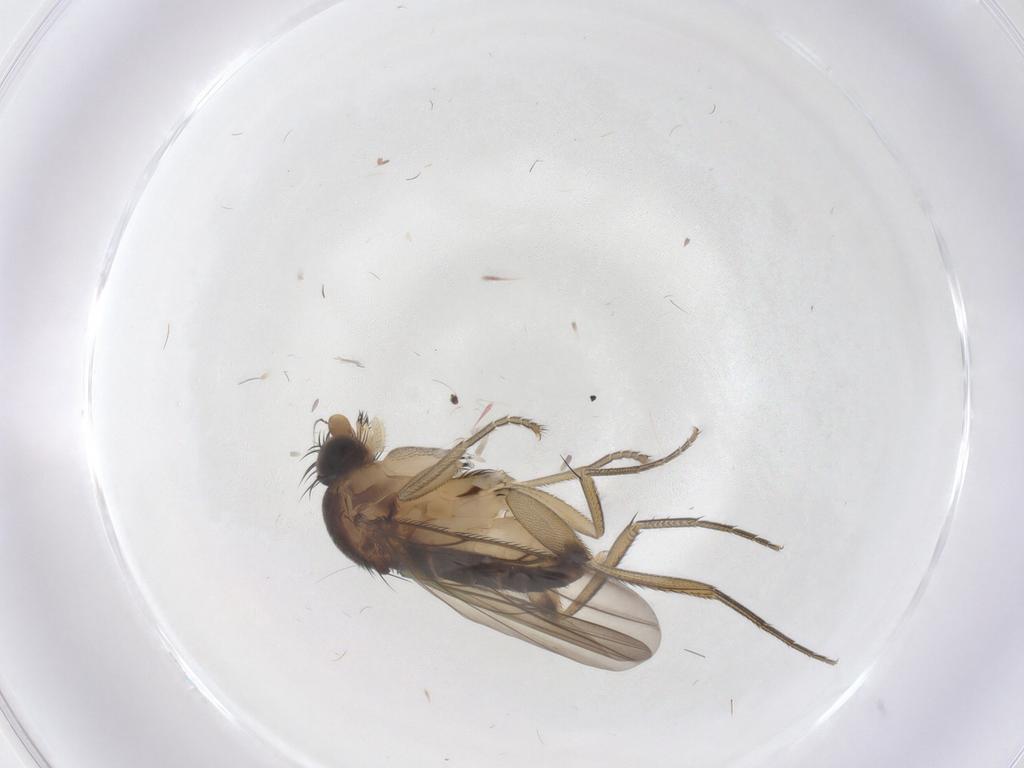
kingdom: Animalia
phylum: Arthropoda
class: Insecta
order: Diptera
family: Phoridae
